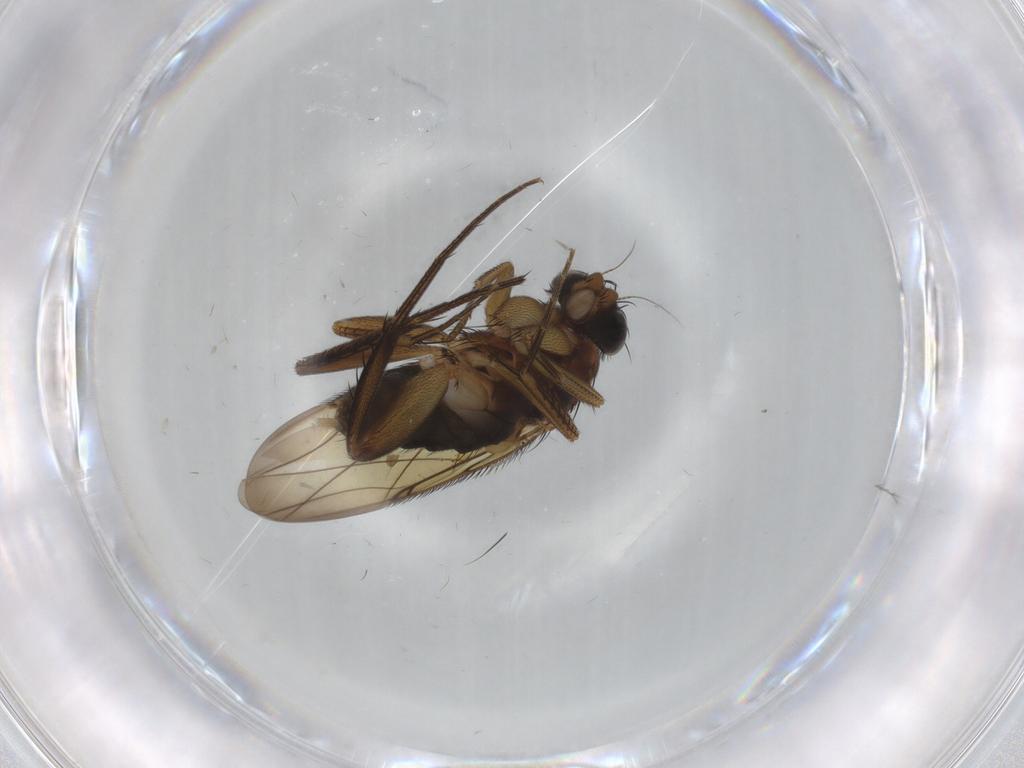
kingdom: Animalia
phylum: Arthropoda
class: Insecta
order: Diptera
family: Phoridae
